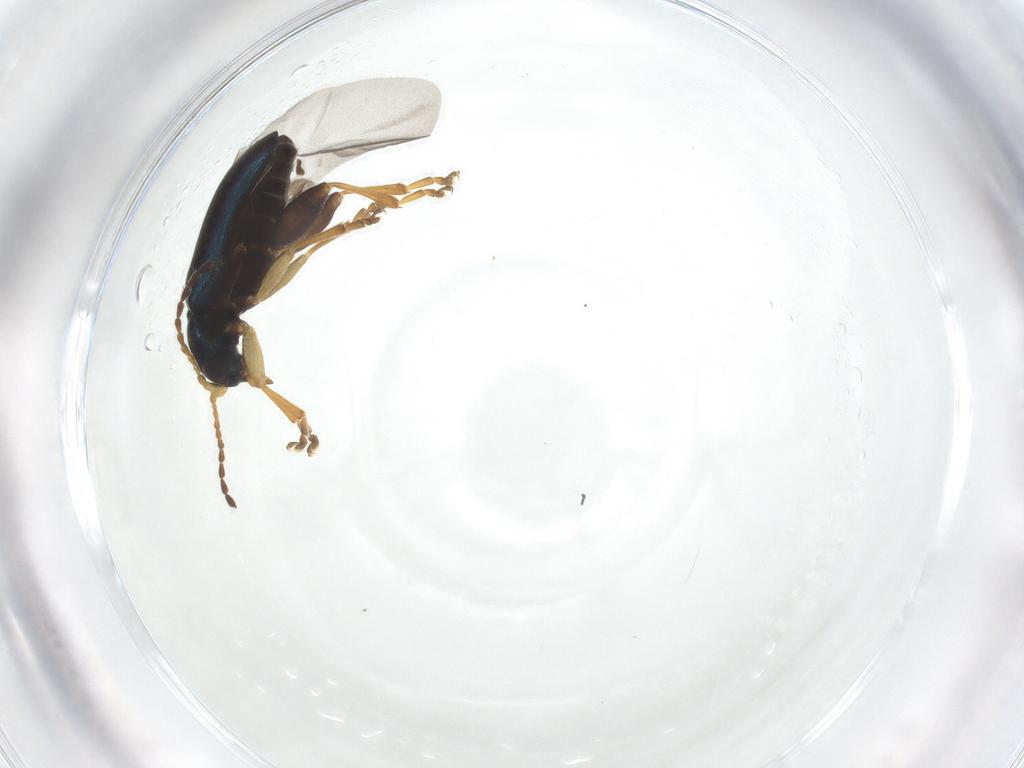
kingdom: Animalia
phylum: Arthropoda
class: Insecta
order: Coleoptera
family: Chrysomelidae
